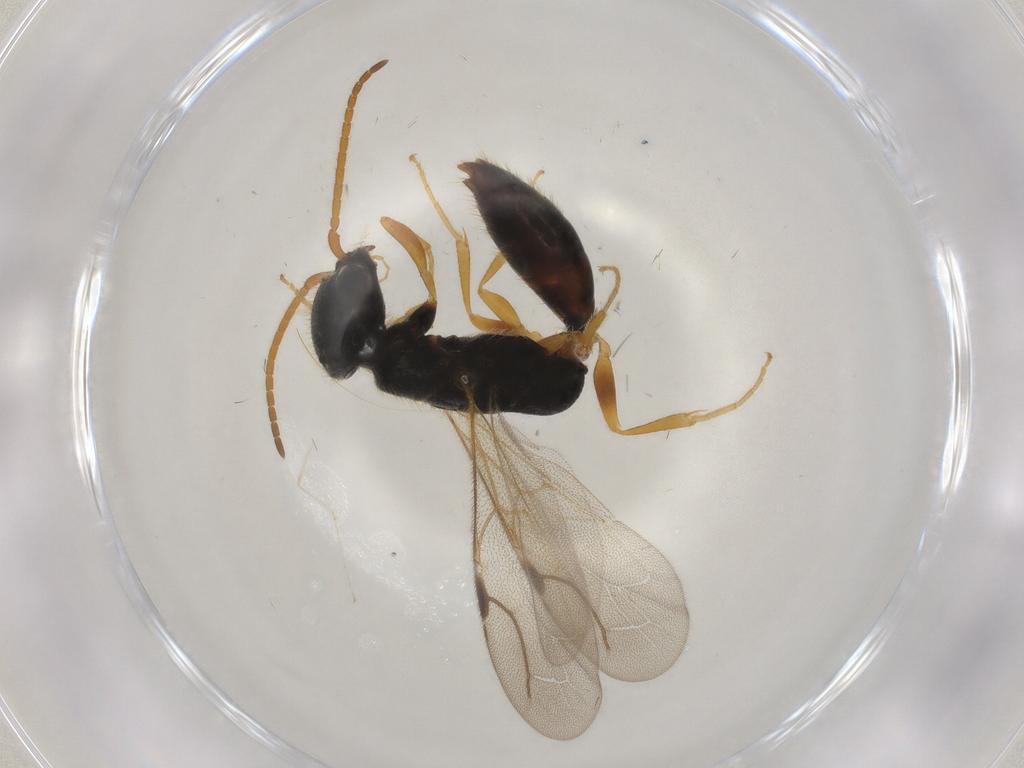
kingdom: Animalia
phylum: Arthropoda
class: Insecta
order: Hymenoptera
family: Bethylidae
